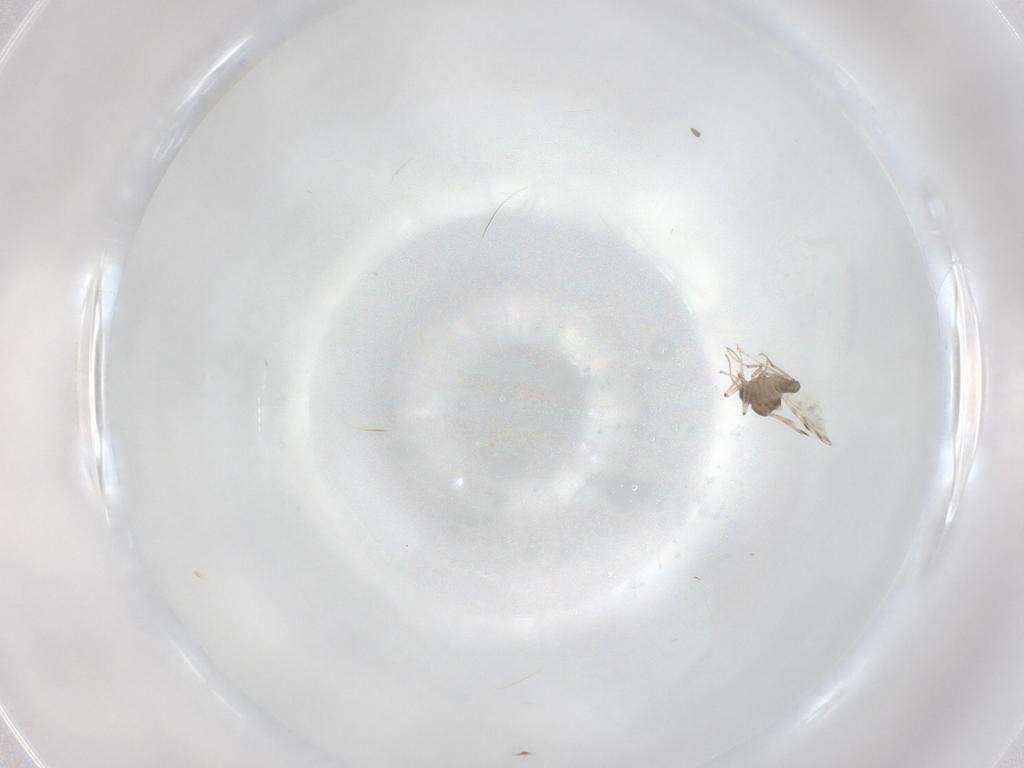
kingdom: Animalia
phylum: Arthropoda
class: Insecta
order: Diptera
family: Ceratopogonidae
